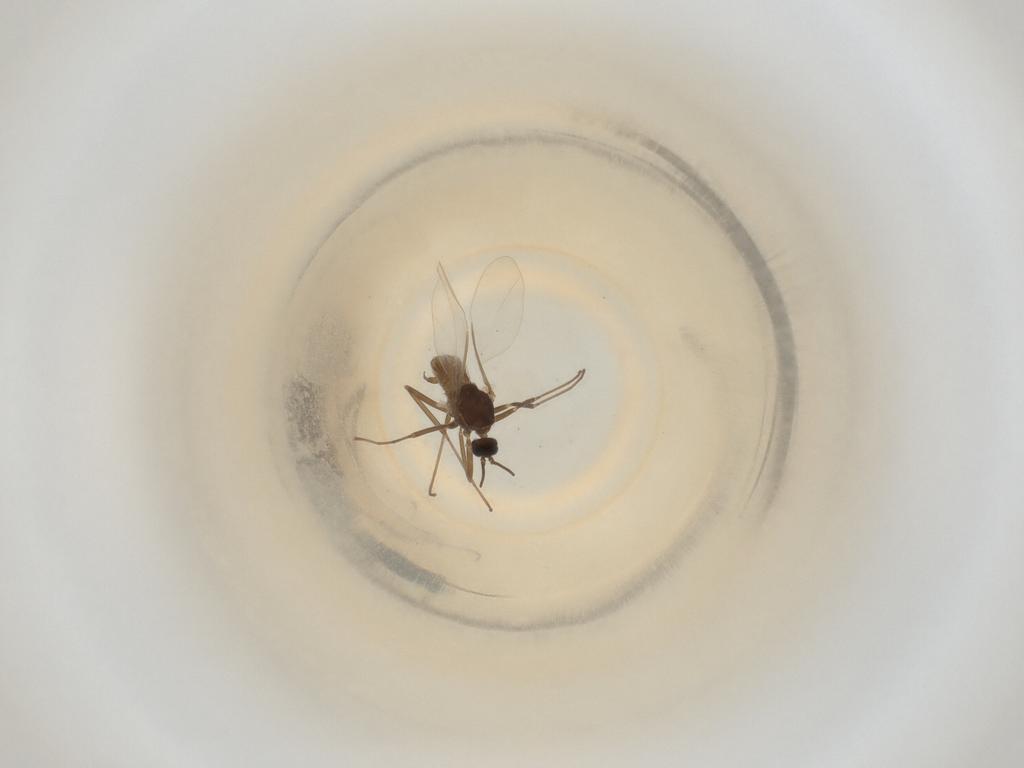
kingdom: Animalia
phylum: Arthropoda
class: Insecta
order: Diptera
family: Cecidomyiidae
